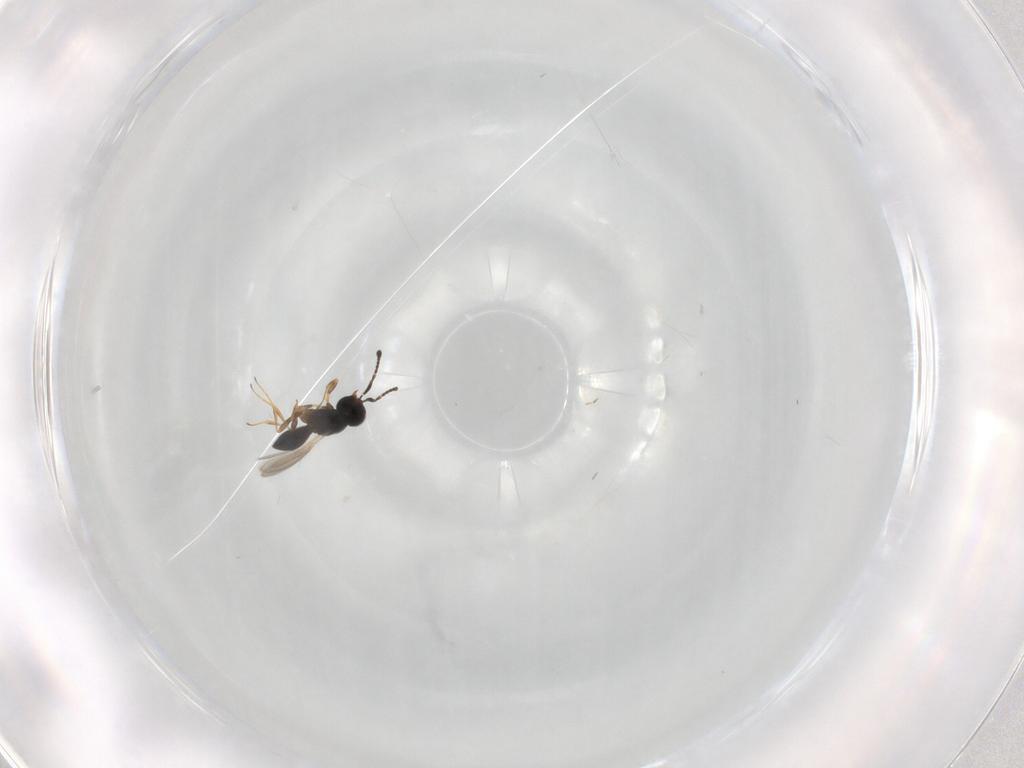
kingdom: Animalia
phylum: Arthropoda
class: Insecta
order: Hymenoptera
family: Scelionidae
